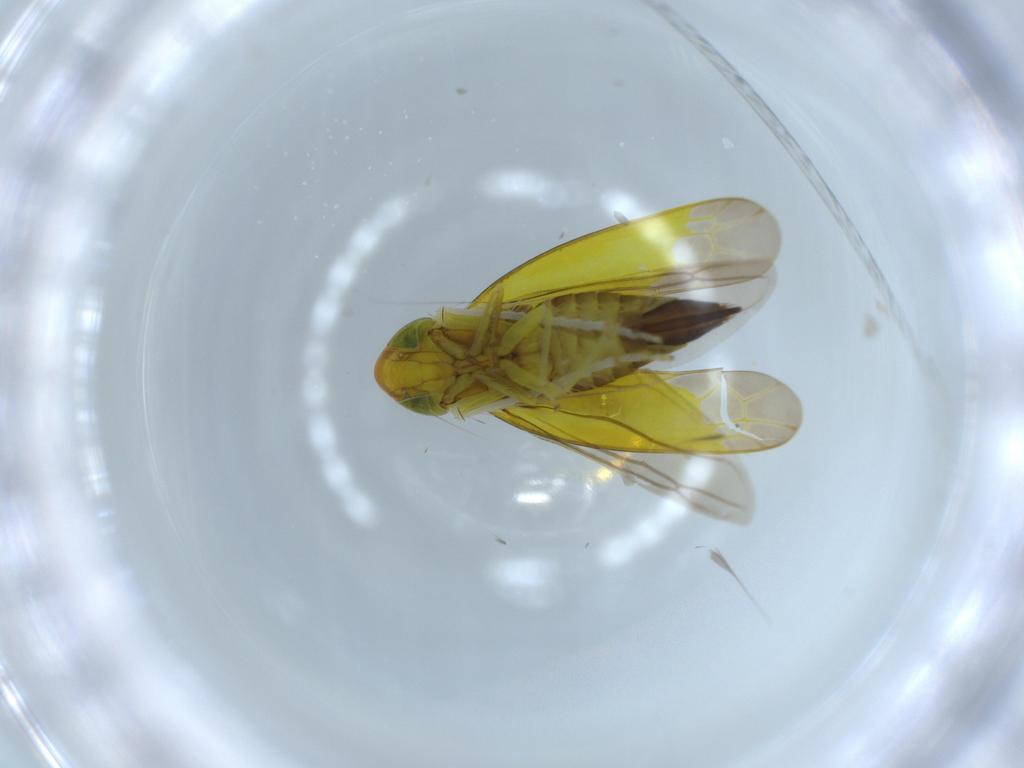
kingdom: Animalia
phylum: Arthropoda
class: Insecta
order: Hemiptera
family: Cicadellidae
